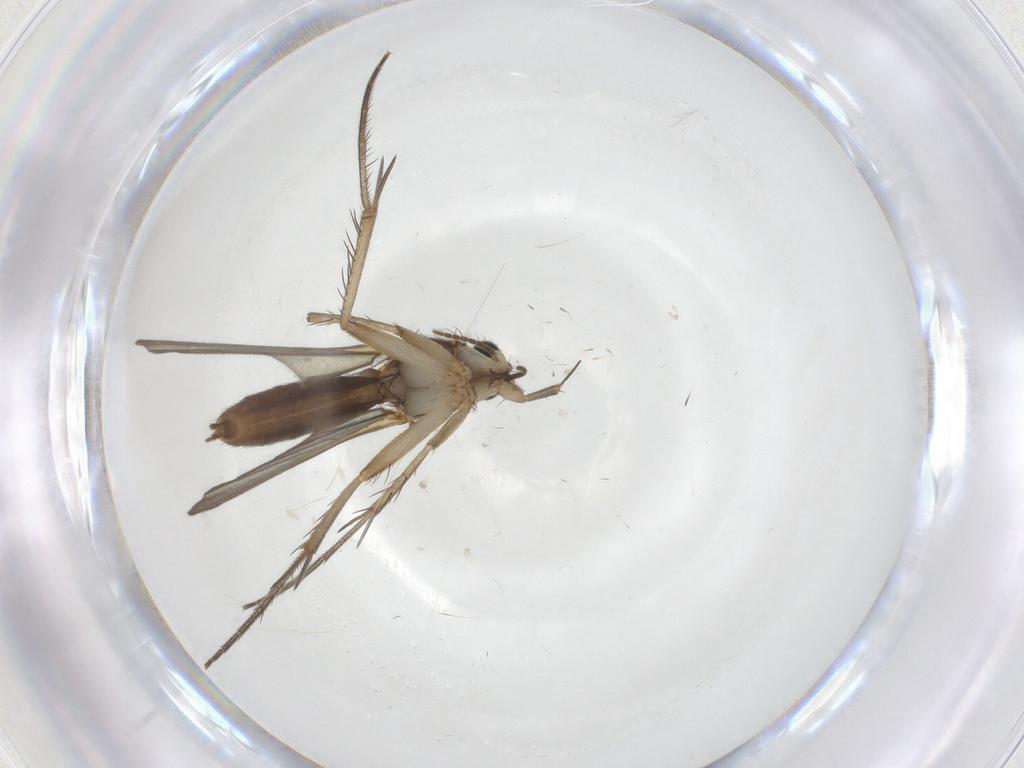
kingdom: Animalia
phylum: Arthropoda
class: Insecta
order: Diptera
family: Mycetophilidae
